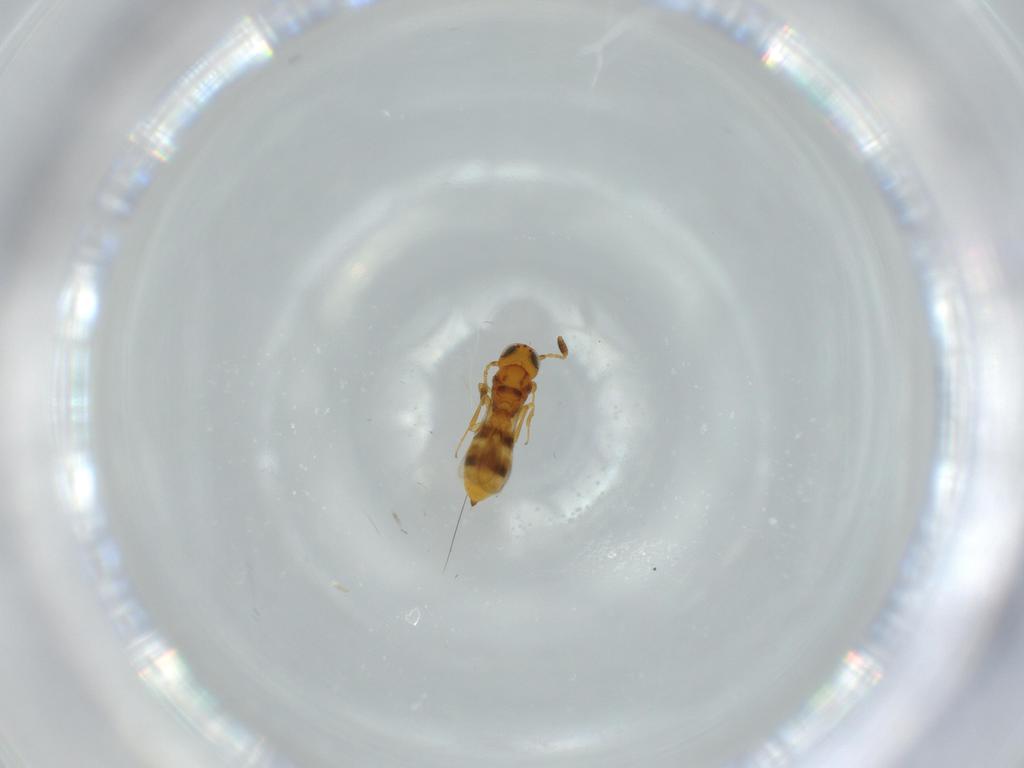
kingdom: Animalia
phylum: Arthropoda
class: Insecta
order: Hymenoptera
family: Scelionidae
